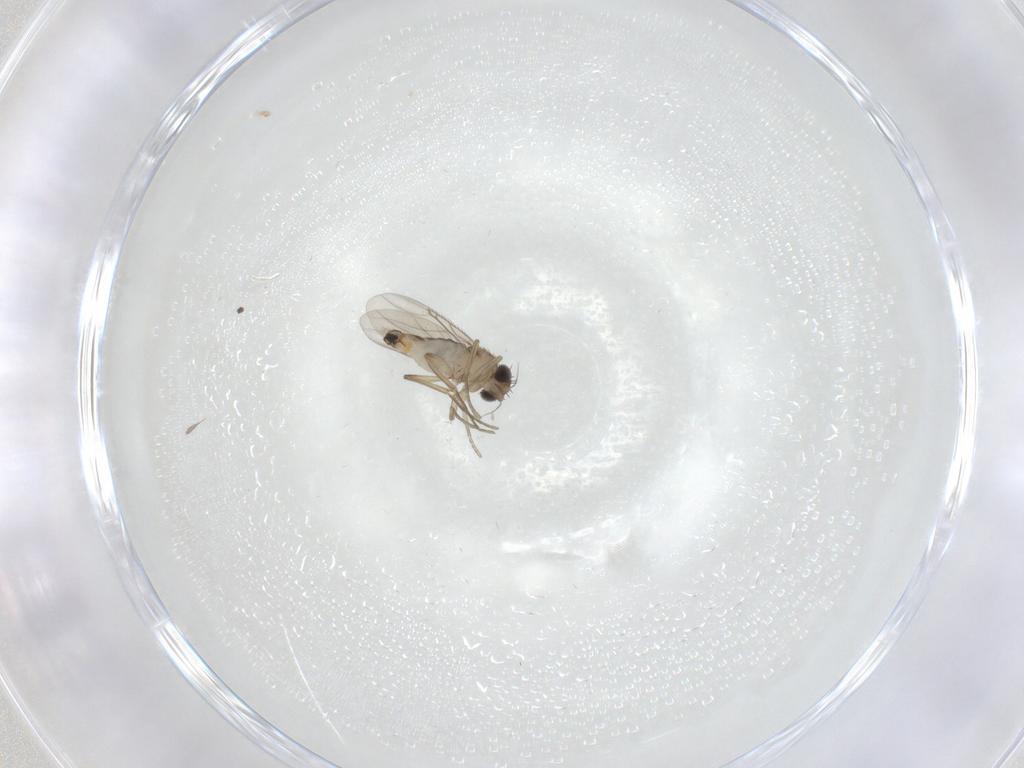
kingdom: Animalia
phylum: Arthropoda
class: Insecta
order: Diptera
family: Phoridae
